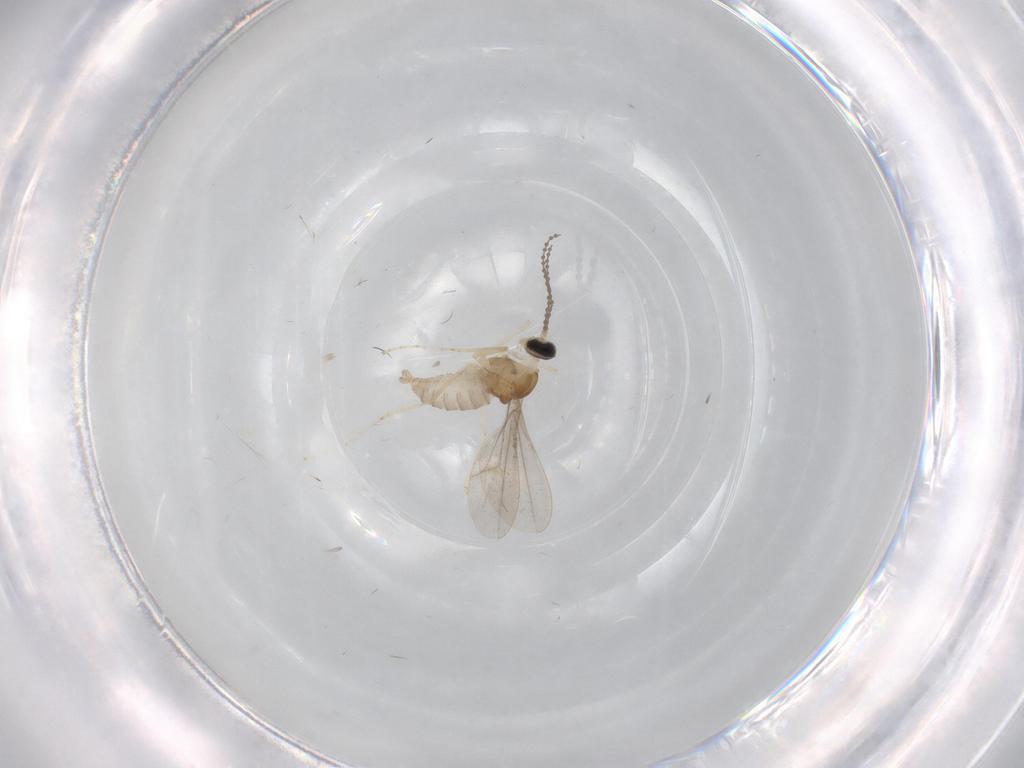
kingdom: Animalia
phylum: Arthropoda
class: Insecta
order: Diptera
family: Cecidomyiidae
